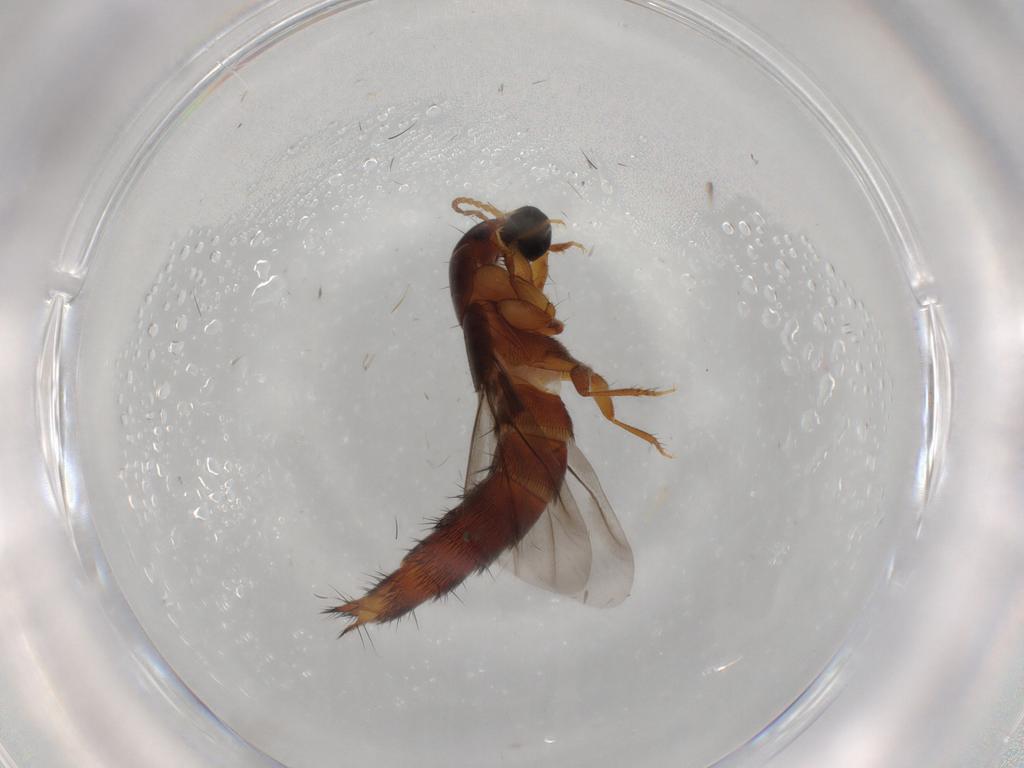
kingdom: Animalia
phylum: Arthropoda
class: Insecta
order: Coleoptera
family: Staphylinidae
